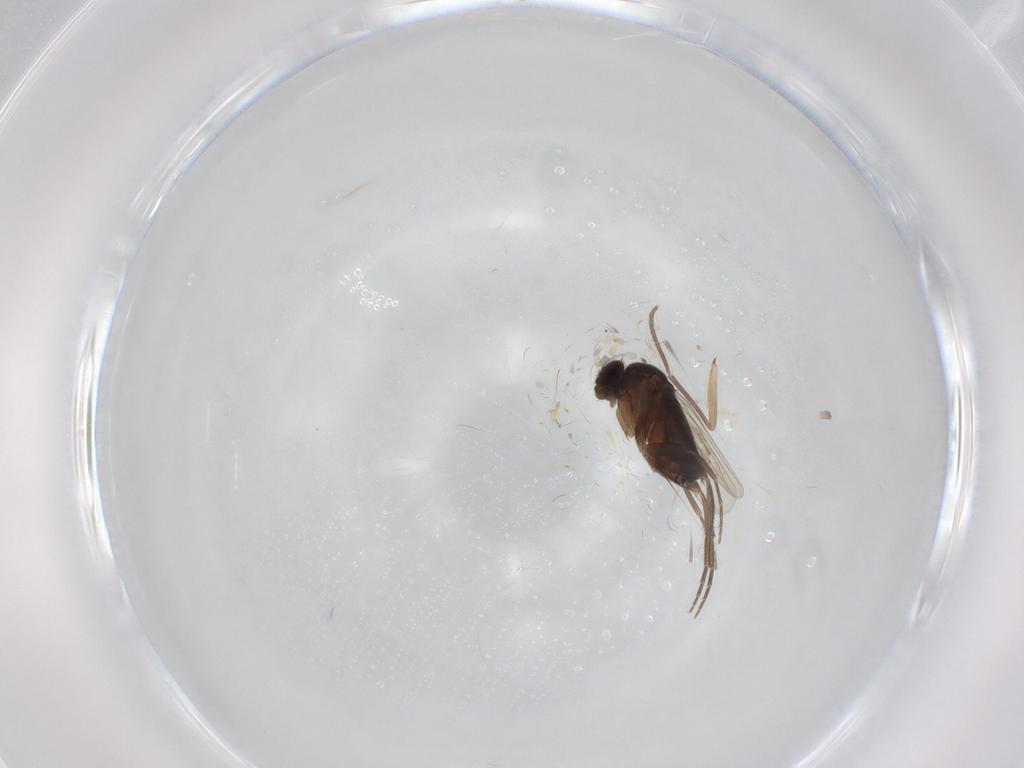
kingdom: Animalia
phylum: Arthropoda
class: Insecta
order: Diptera
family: Phoridae
